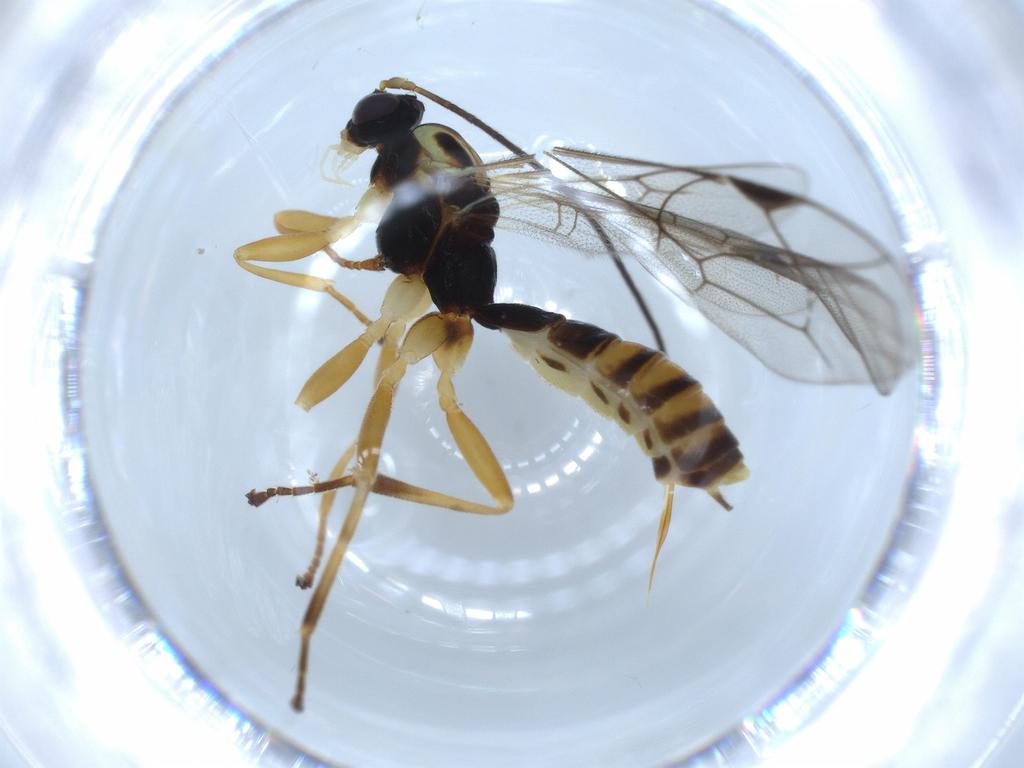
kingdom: Animalia
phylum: Arthropoda
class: Insecta
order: Hymenoptera
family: Ichneumonidae
